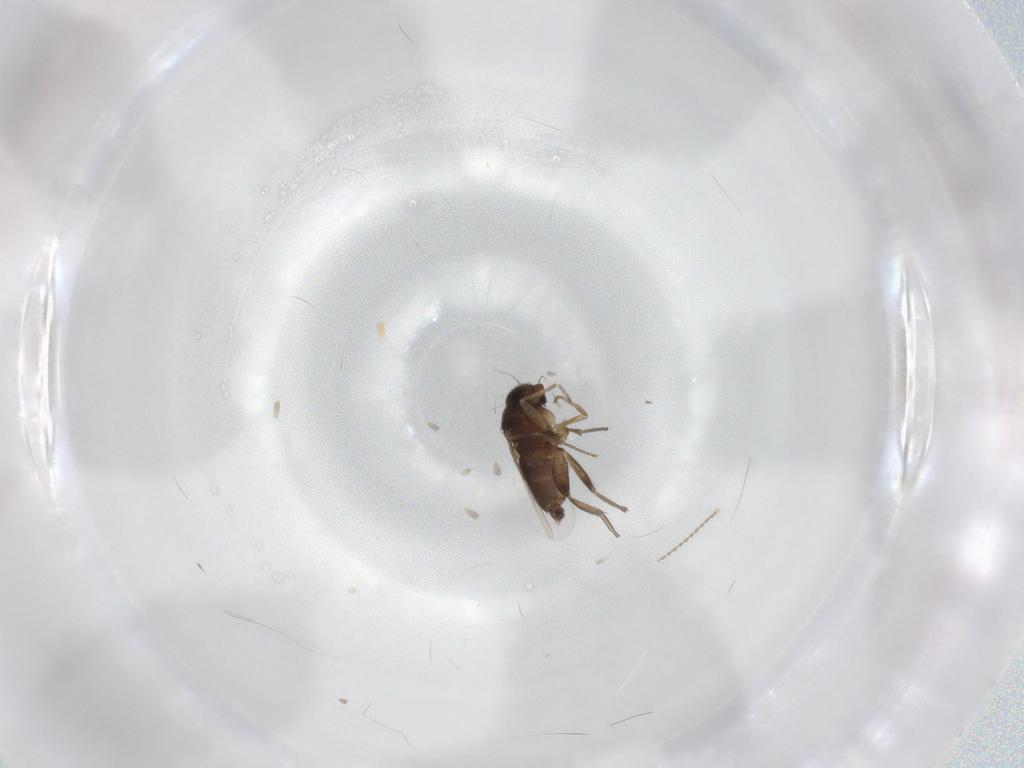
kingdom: Animalia
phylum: Arthropoda
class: Insecta
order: Diptera
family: Phoridae
